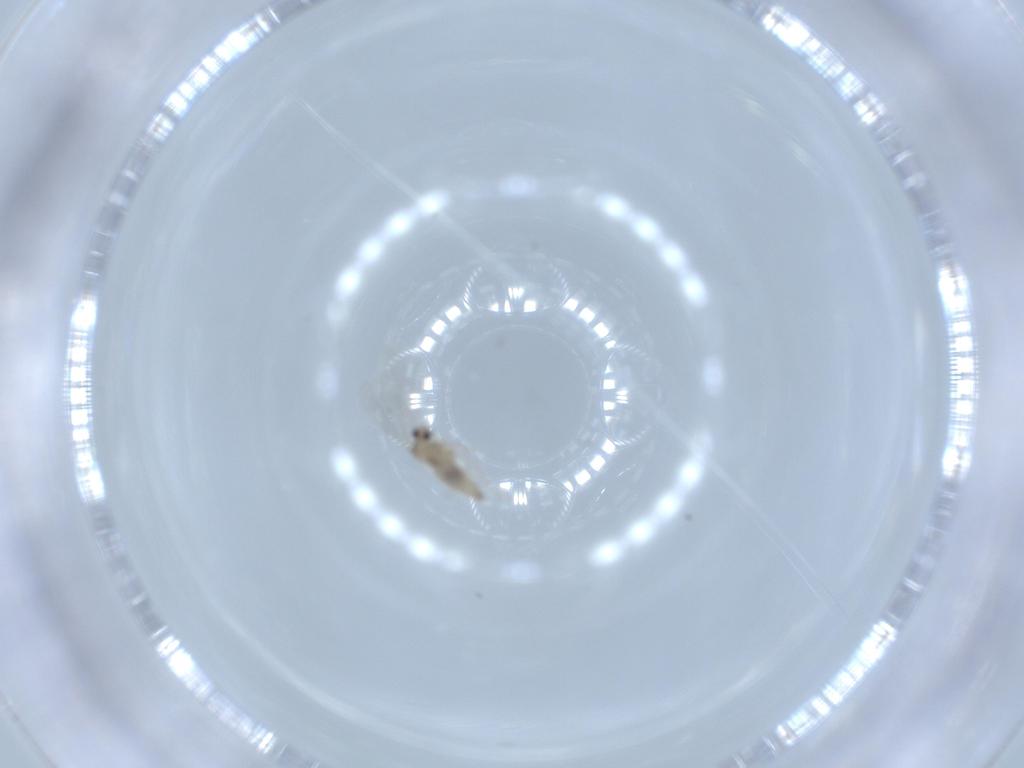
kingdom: Animalia
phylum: Arthropoda
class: Insecta
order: Diptera
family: Cecidomyiidae
